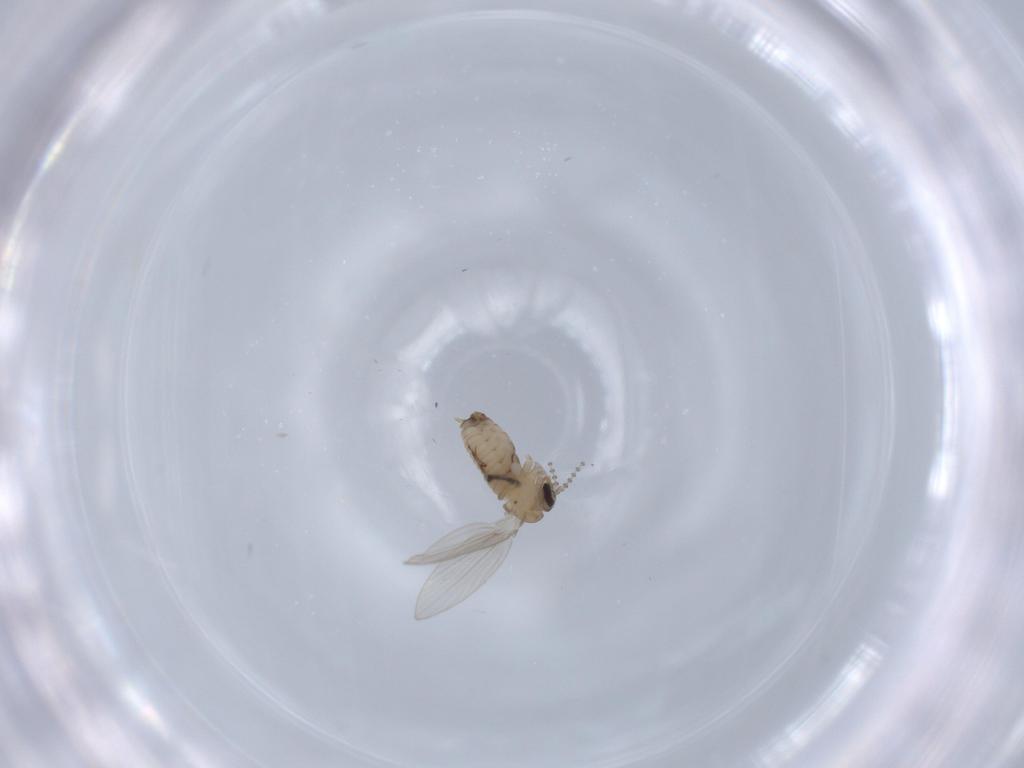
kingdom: Animalia
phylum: Arthropoda
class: Insecta
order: Diptera
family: Psychodidae
